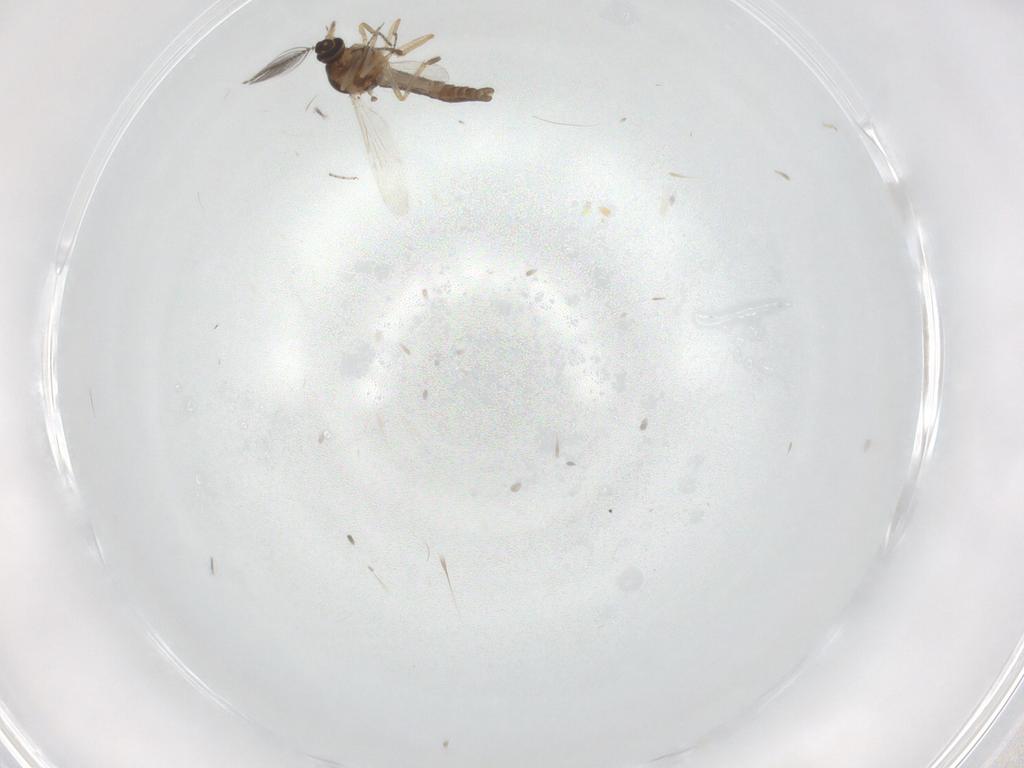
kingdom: Animalia
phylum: Arthropoda
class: Insecta
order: Diptera
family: Ceratopogonidae
